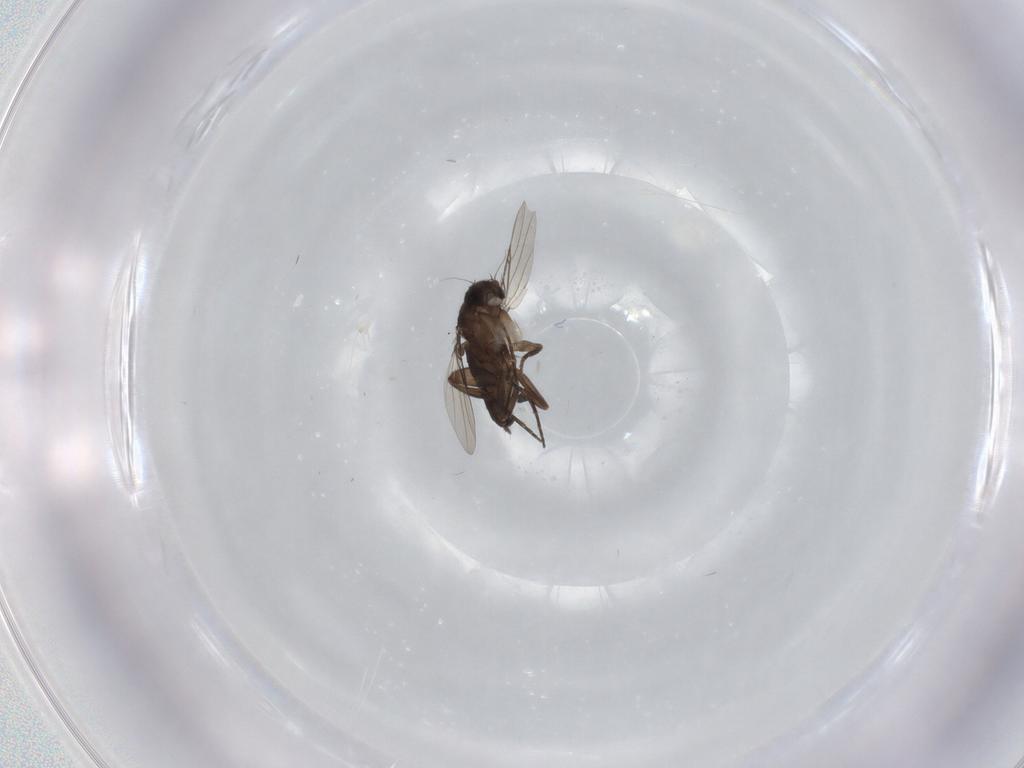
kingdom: Animalia
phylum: Arthropoda
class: Insecta
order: Diptera
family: Phoridae
